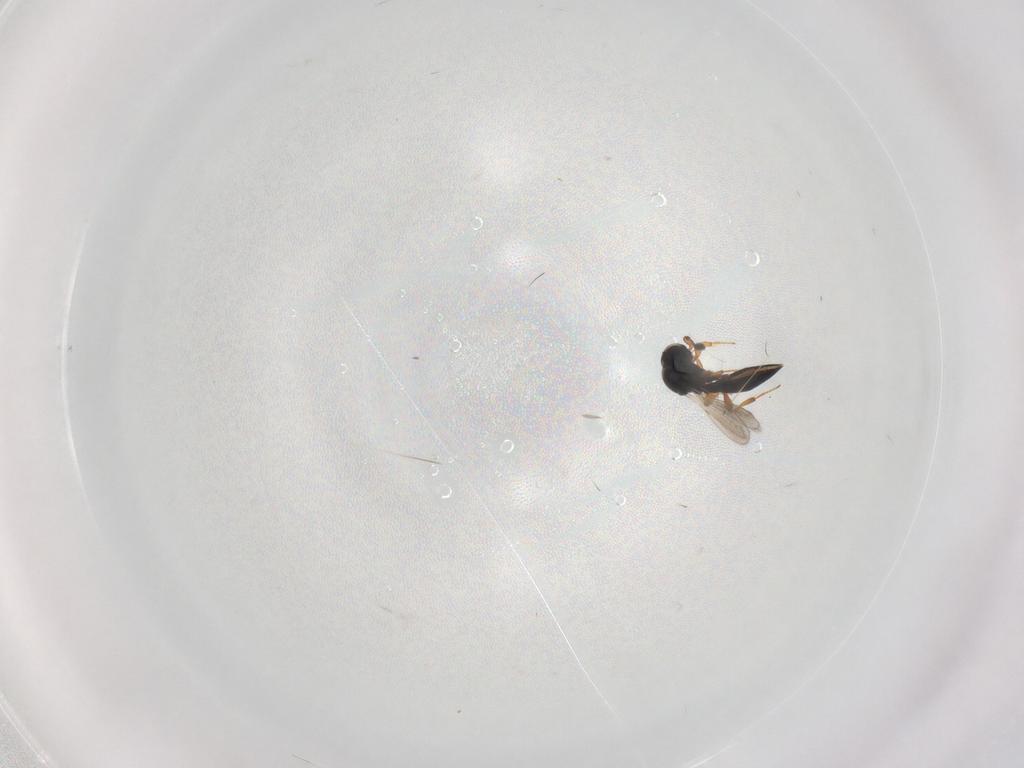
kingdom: Animalia
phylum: Arthropoda
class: Insecta
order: Hymenoptera
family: Platygastridae
